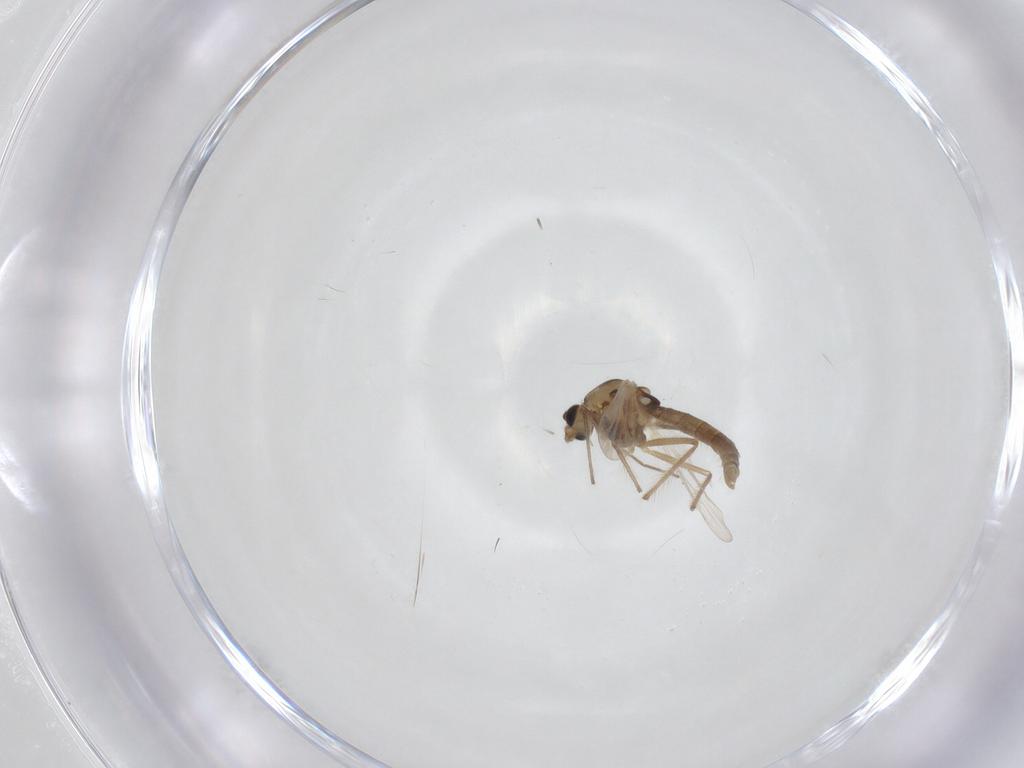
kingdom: Animalia
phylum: Arthropoda
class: Insecta
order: Diptera
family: Chironomidae
